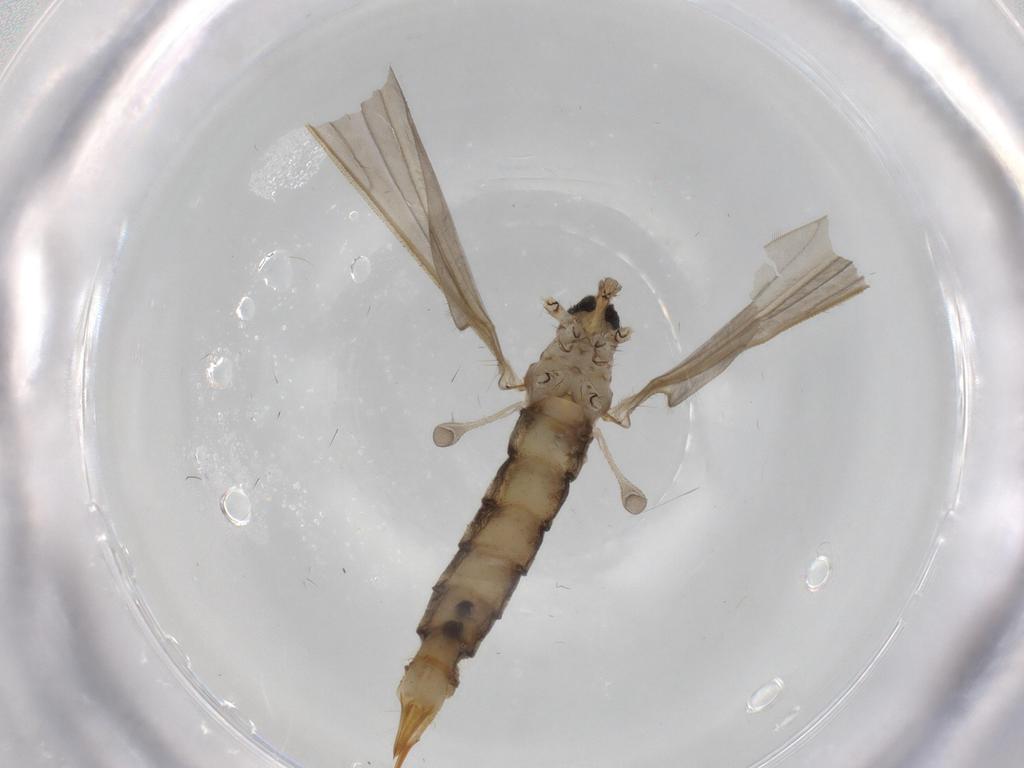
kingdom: Animalia
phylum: Arthropoda
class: Insecta
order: Diptera
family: Limoniidae
